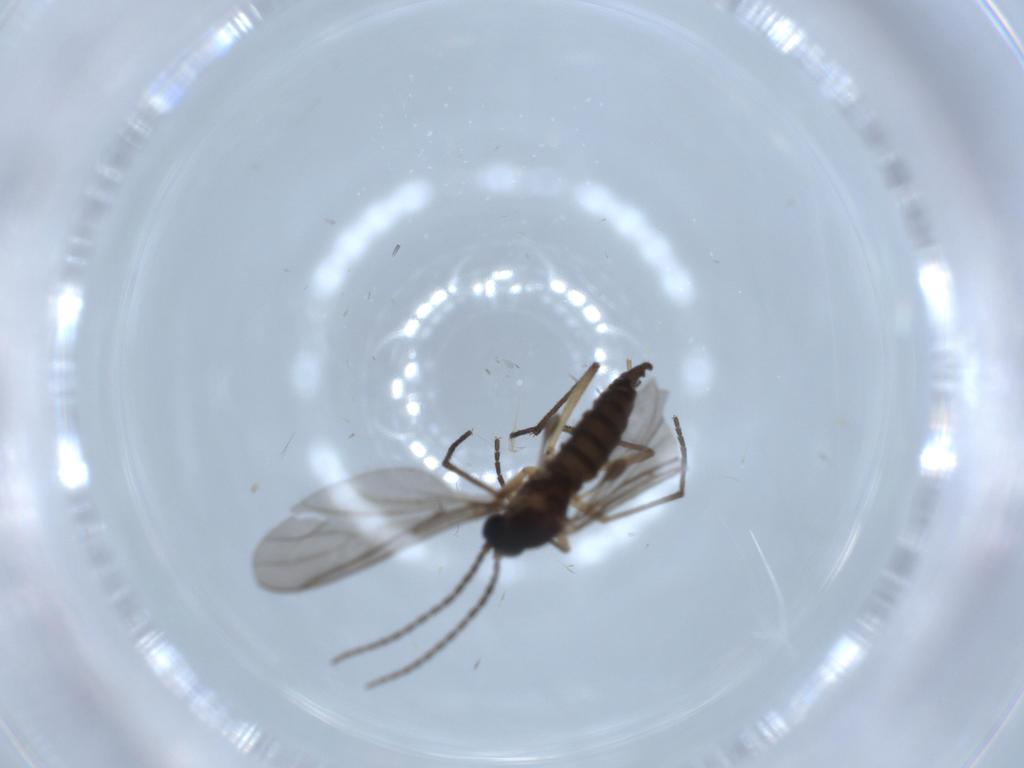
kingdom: Animalia
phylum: Arthropoda
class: Insecta
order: Diptera
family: Sciaridae
